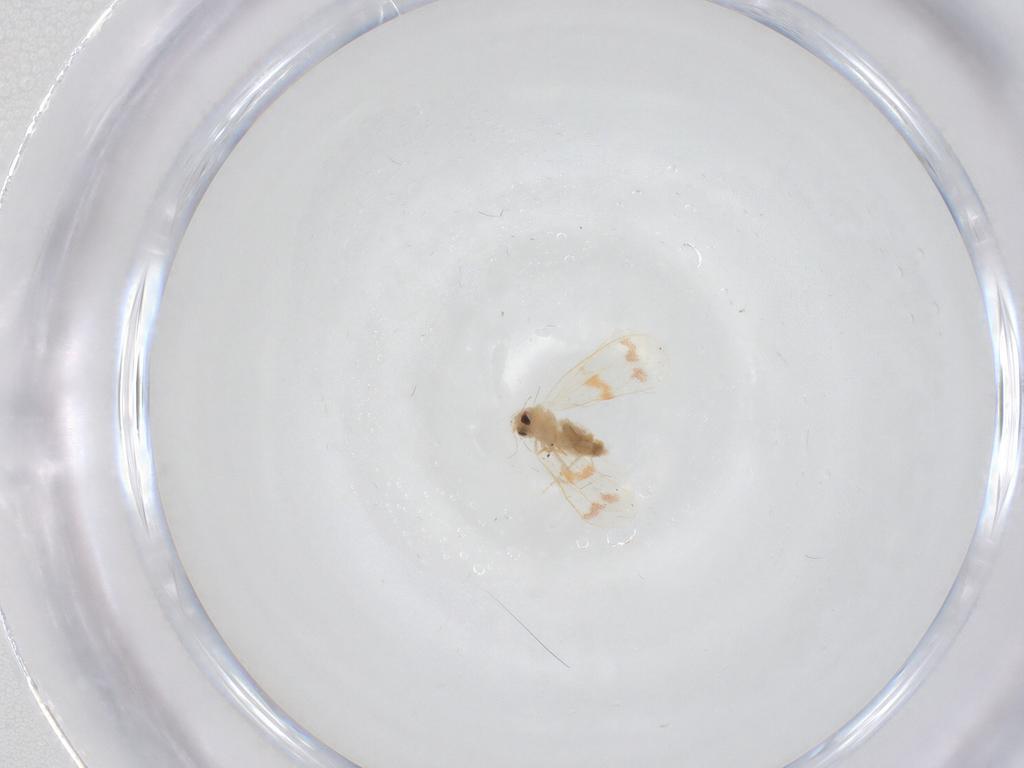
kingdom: Animalia
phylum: Arthropoda
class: Insecta
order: Hemiptera
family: Aleyrodidae
